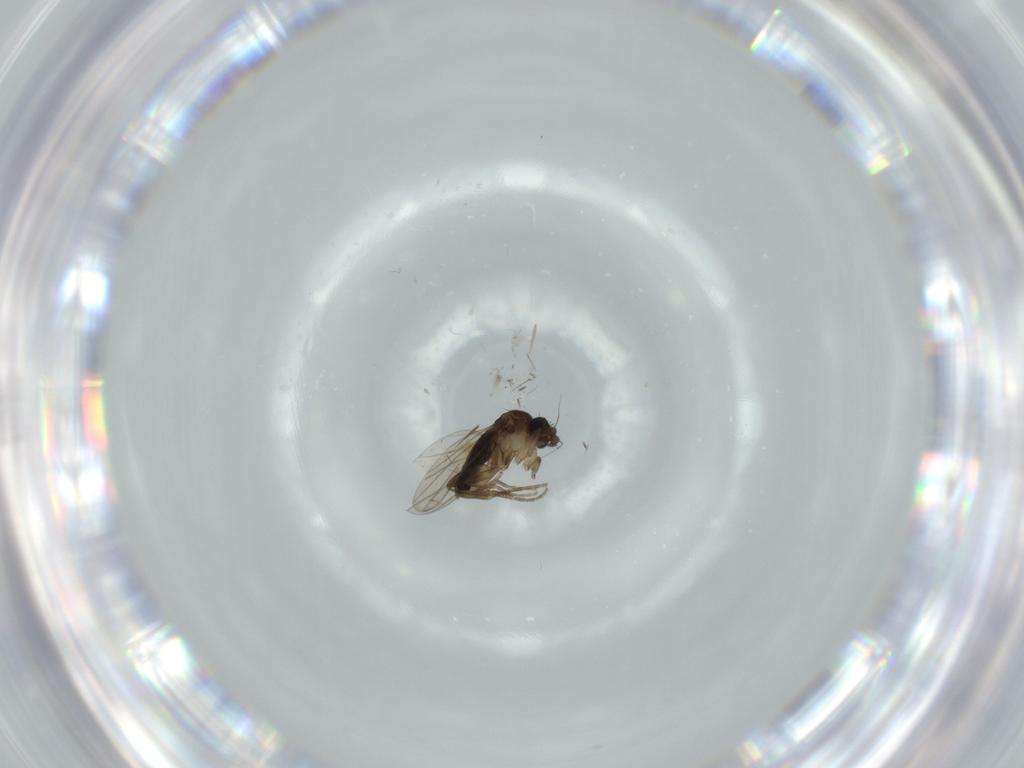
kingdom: Animalia
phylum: Arthropoda
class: Insecta
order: Diptera
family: Phoridae
